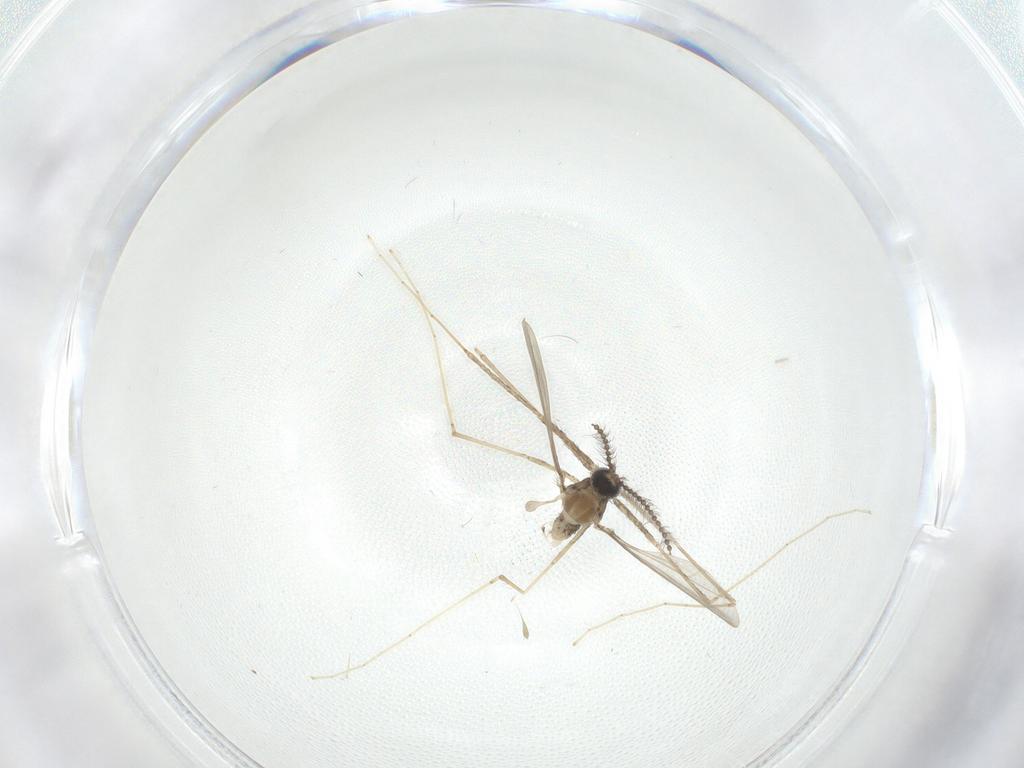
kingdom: Animalia
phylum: Arthropoda
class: Insecta
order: Diptera
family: Cecidomyiidae
